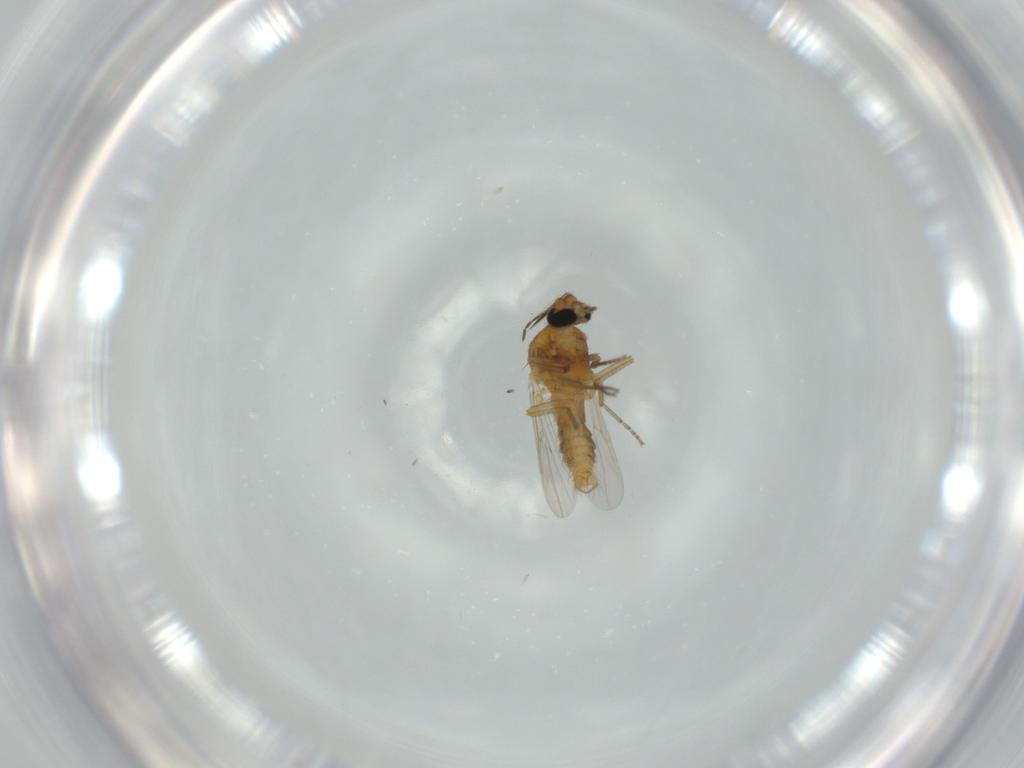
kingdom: Animalia
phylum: Arthropoda
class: Insecta
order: Diptera
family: Ceratopogonidae
